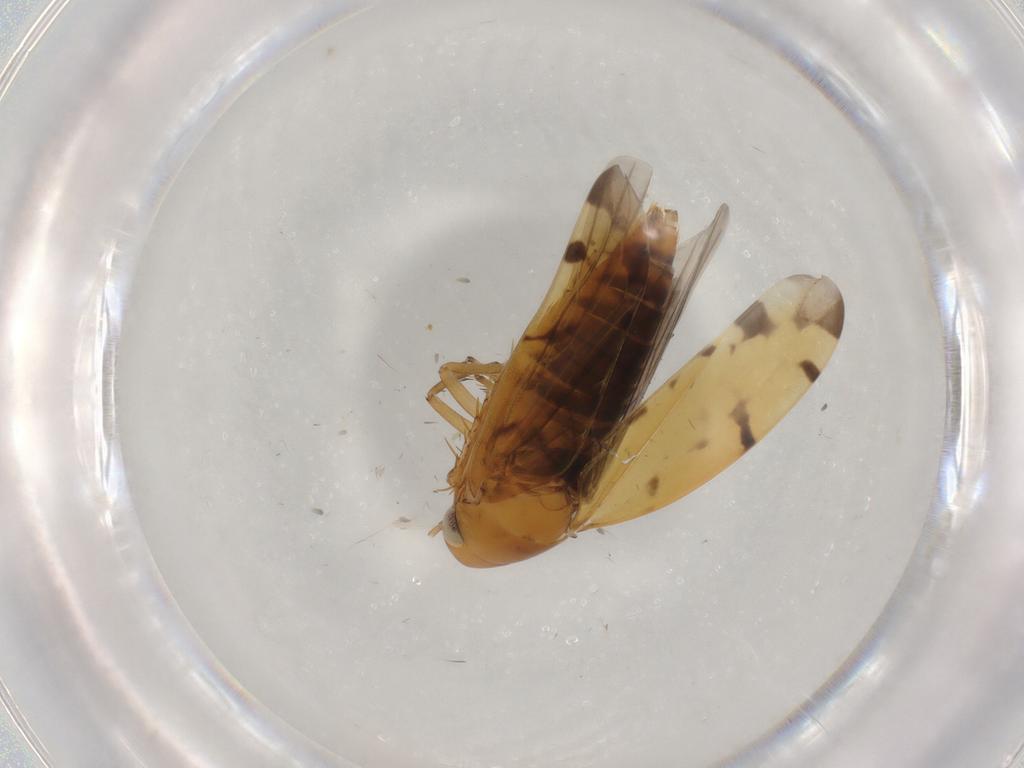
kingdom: Animalia
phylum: Arthropoda
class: Insecta
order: Hemiptera
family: Cicadellidae
